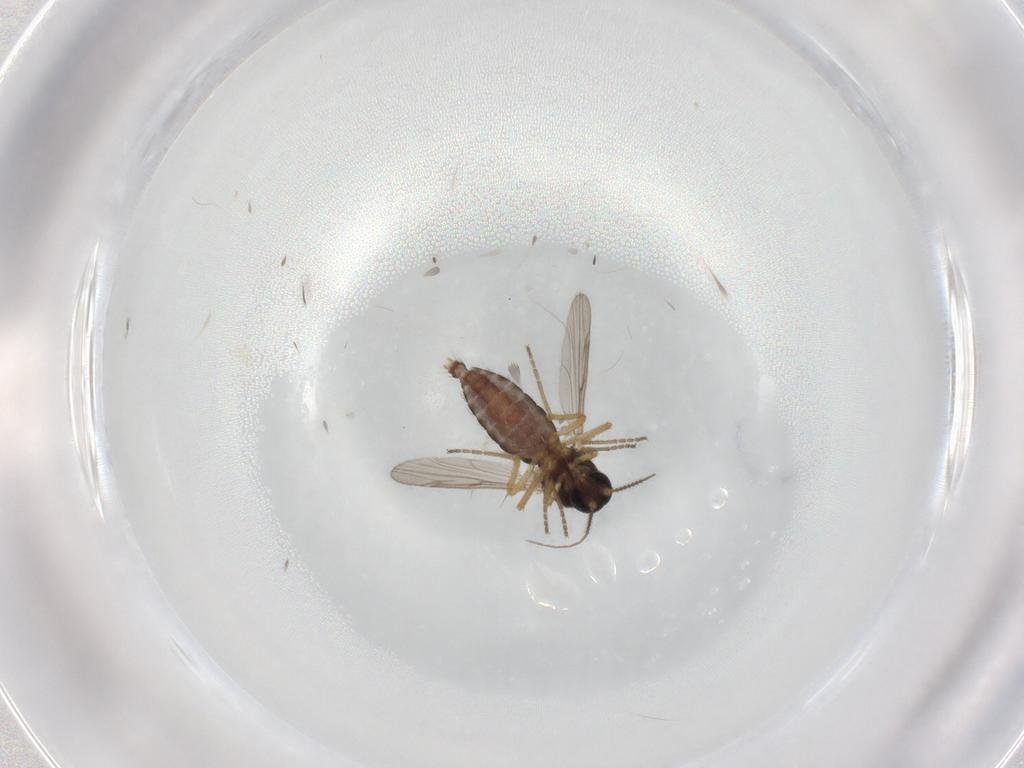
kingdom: Animalia
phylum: Arthropoda
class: Insecta
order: Diptera
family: Ceratopogonidae
